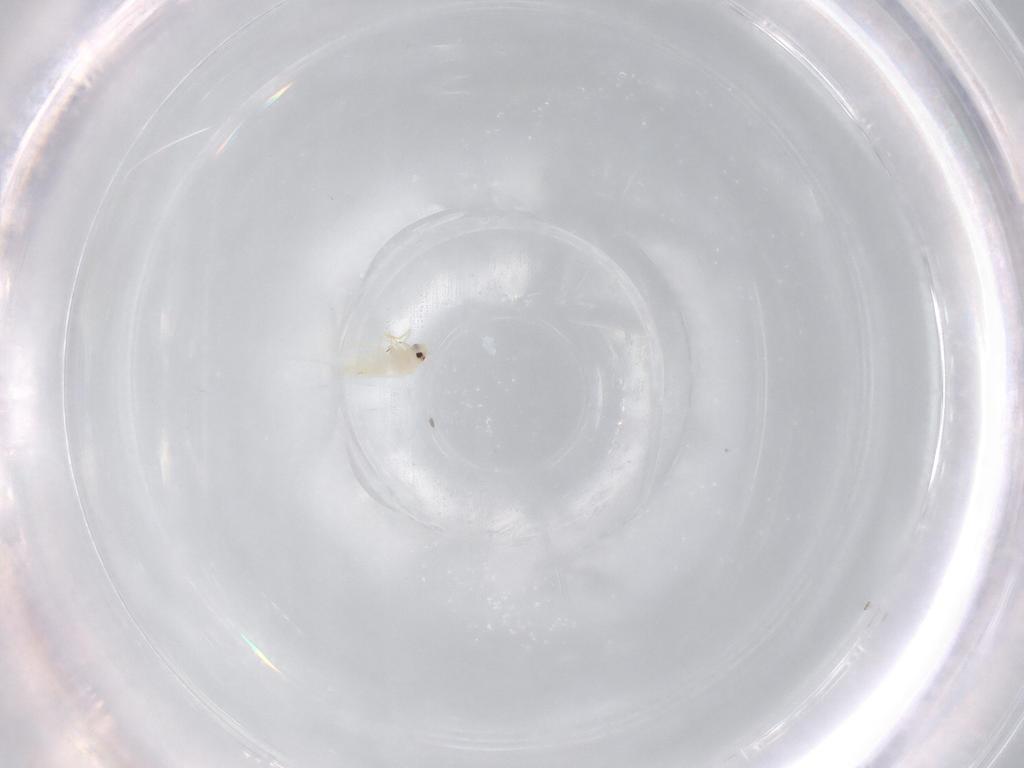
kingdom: Animalia
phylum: Arthropoda
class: Insecta
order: Hemiptera
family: Aleyrodidae
